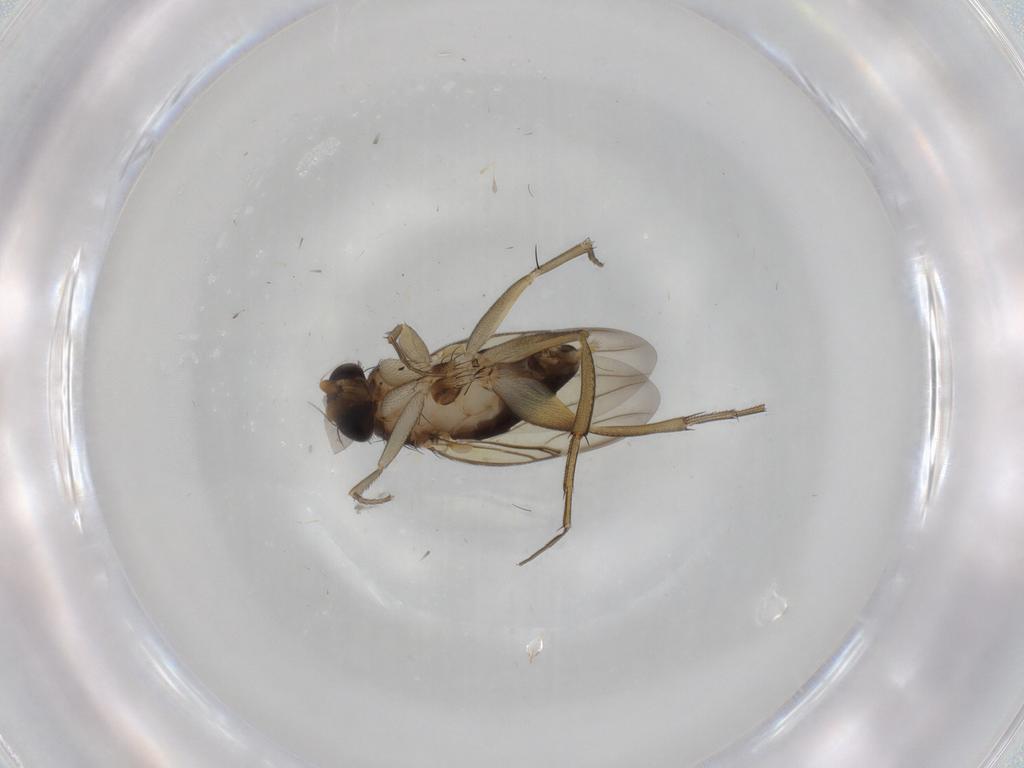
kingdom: Animalia
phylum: Arthropoda
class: Insecta
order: Diptera
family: Phoridae
